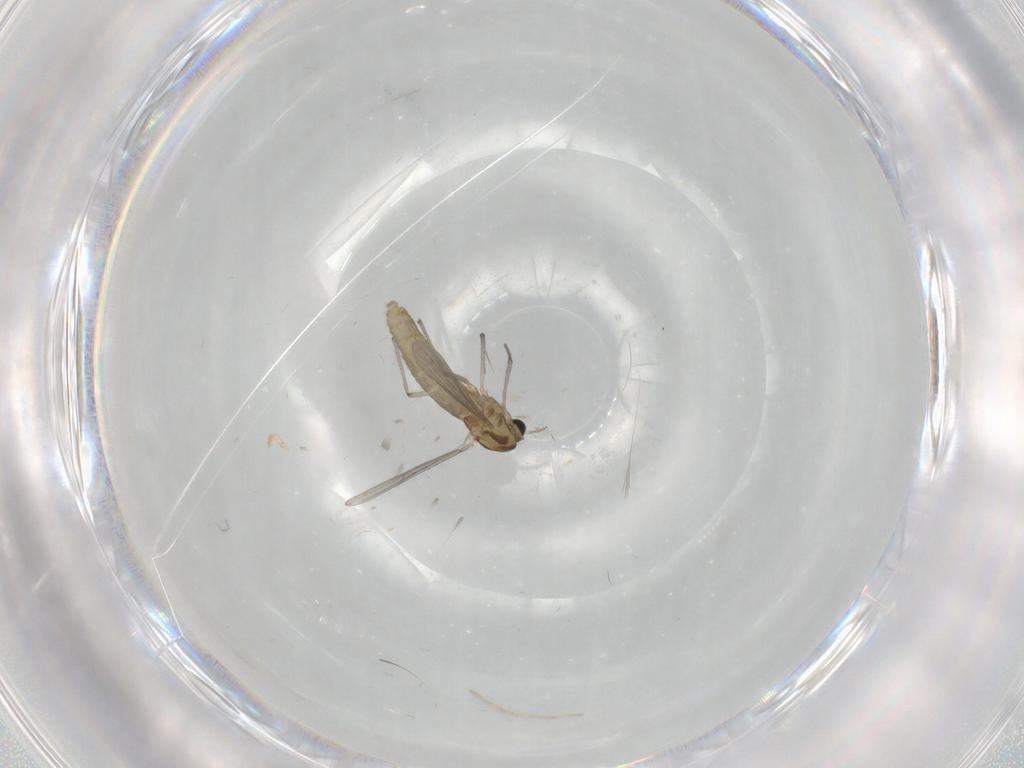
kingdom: Animalia
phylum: Arthropoda
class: Insecta
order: Diptera
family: Cecidomyiidae
